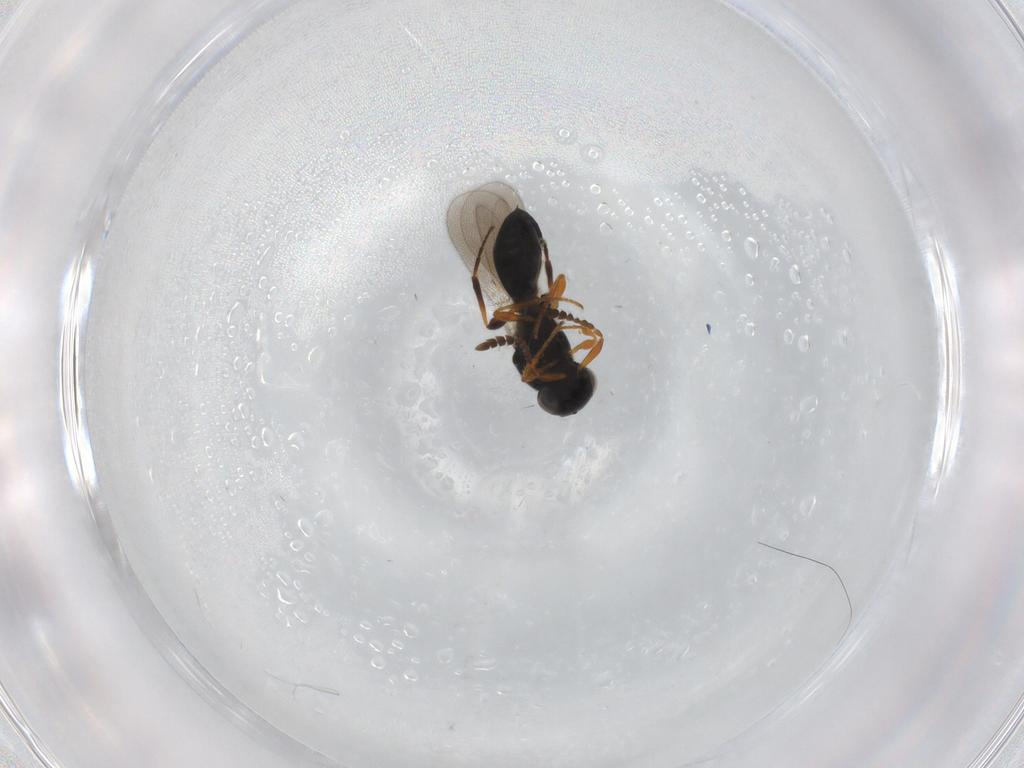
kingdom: Animalia
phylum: Arthropoda
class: Insecta
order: Hymenoptera
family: Platygastridae
